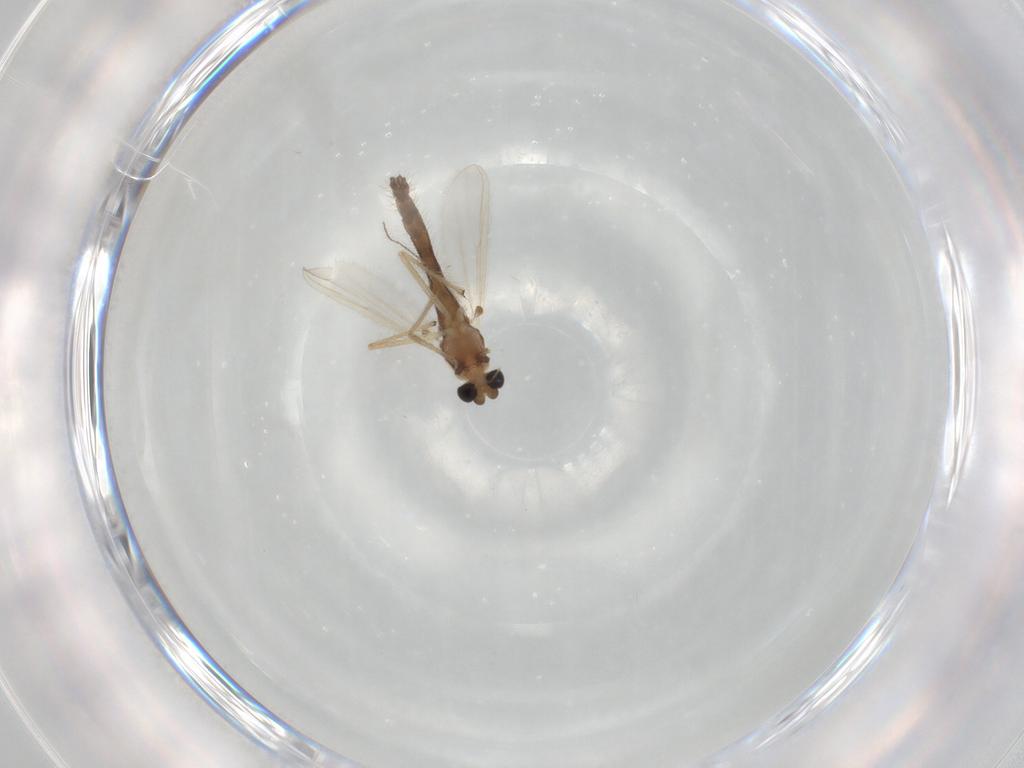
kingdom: Animalia
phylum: Arthropoda
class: Insecta
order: Diptera
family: Chironomidae
